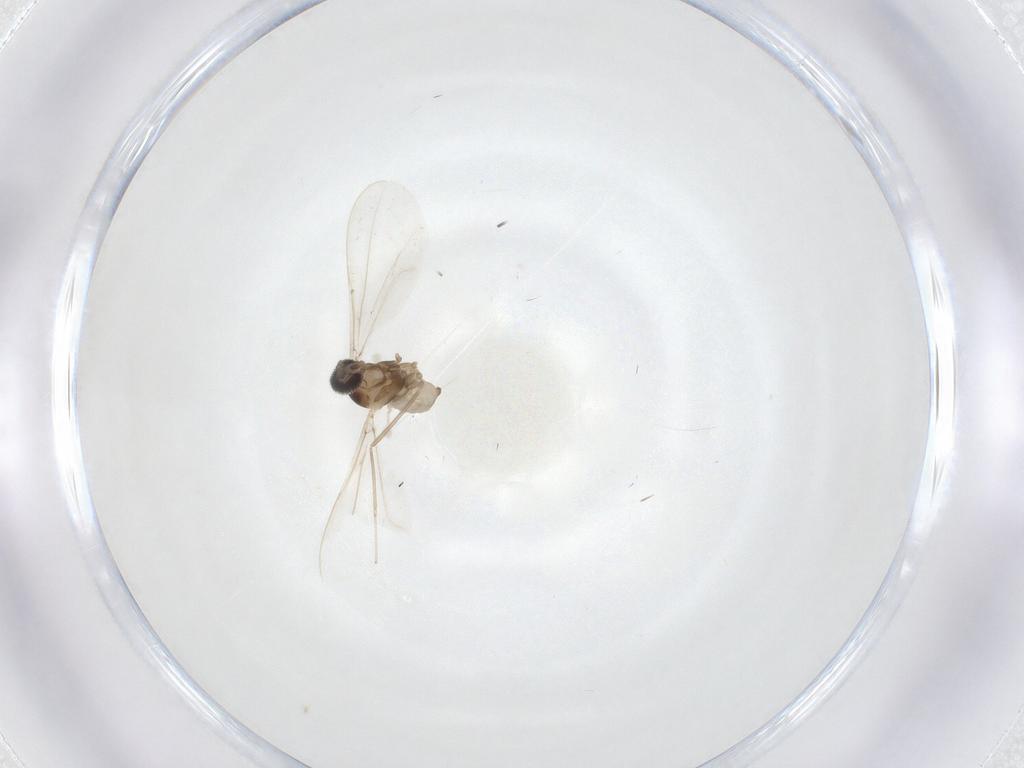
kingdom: Animalia
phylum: Arthropoda
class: Insecta
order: Diptera
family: Cecidomyiidae
